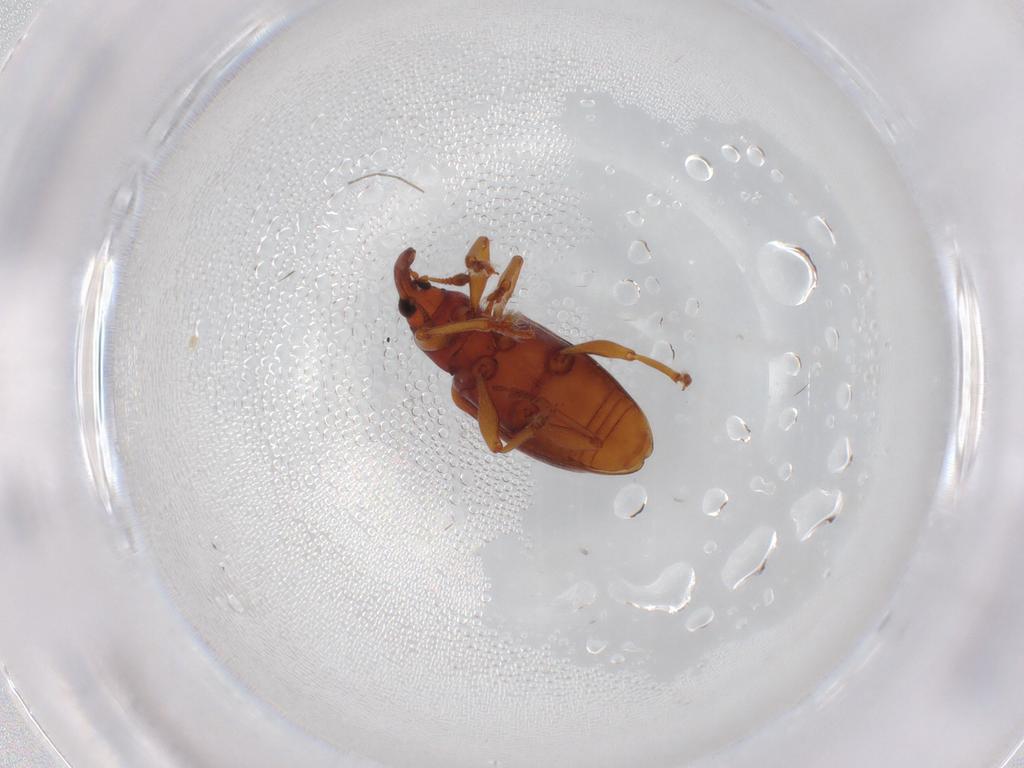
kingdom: Animalia
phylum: Arthropoda
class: Insecta
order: Coleoptera
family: Curculionidae
